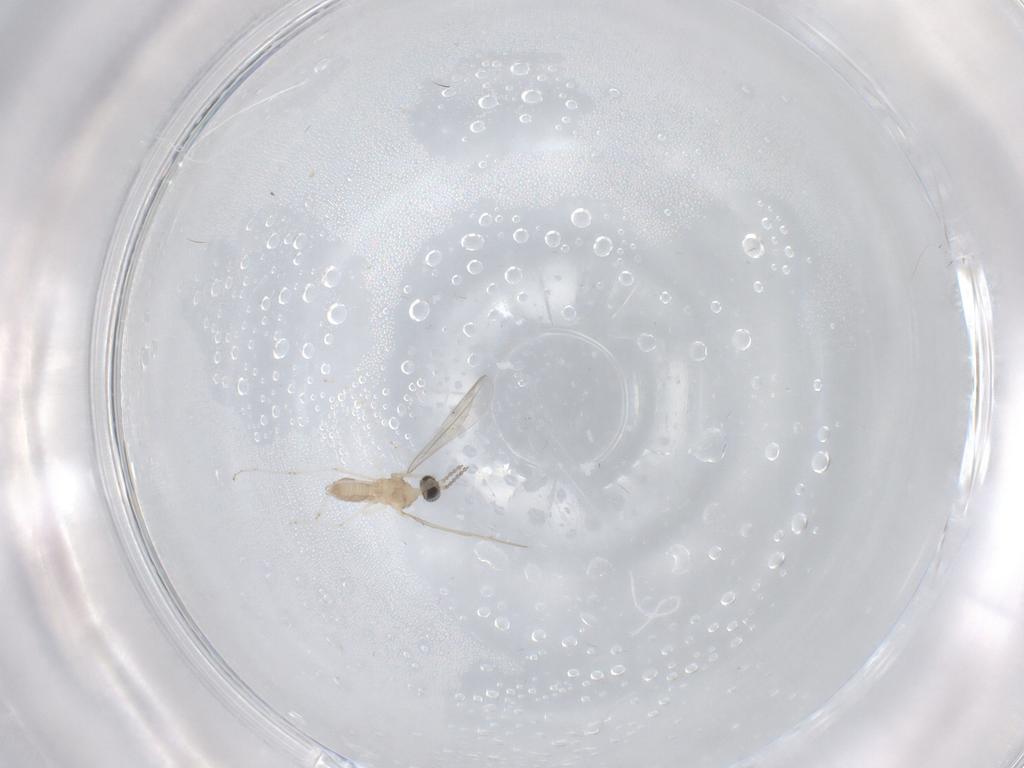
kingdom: Animalia
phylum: Arthropoda
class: Insecta
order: Diptera
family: Cecidomyiidae
